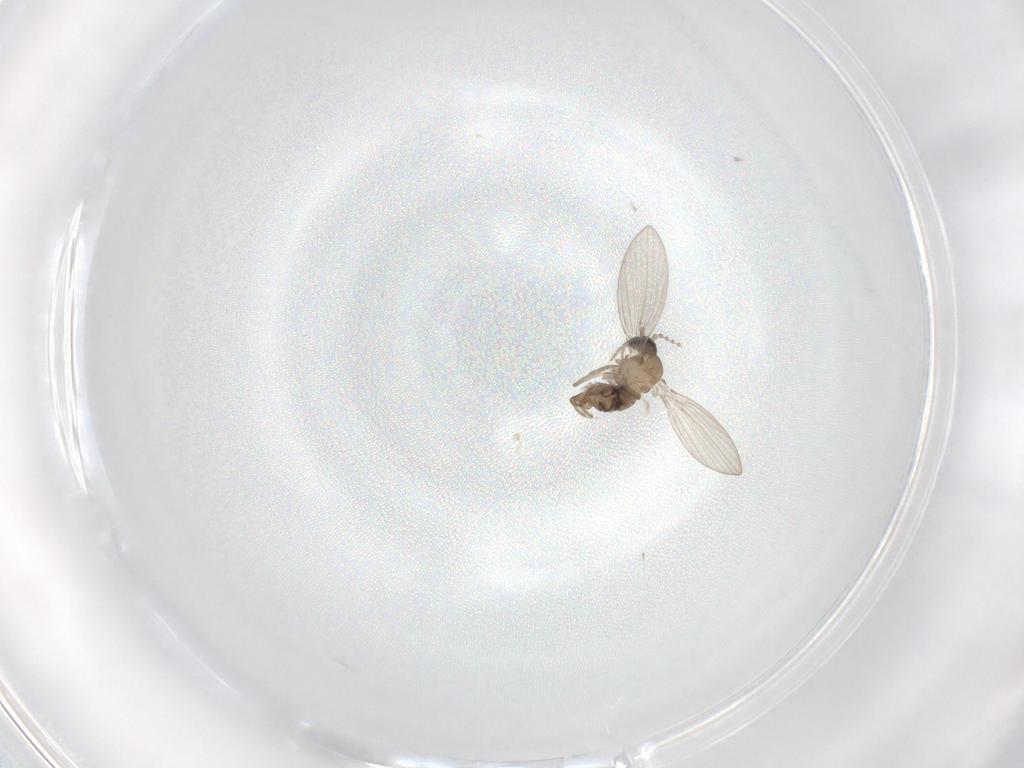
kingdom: Animalia
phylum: Arthropoda
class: Insecta
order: Diptera
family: Psychodidae
